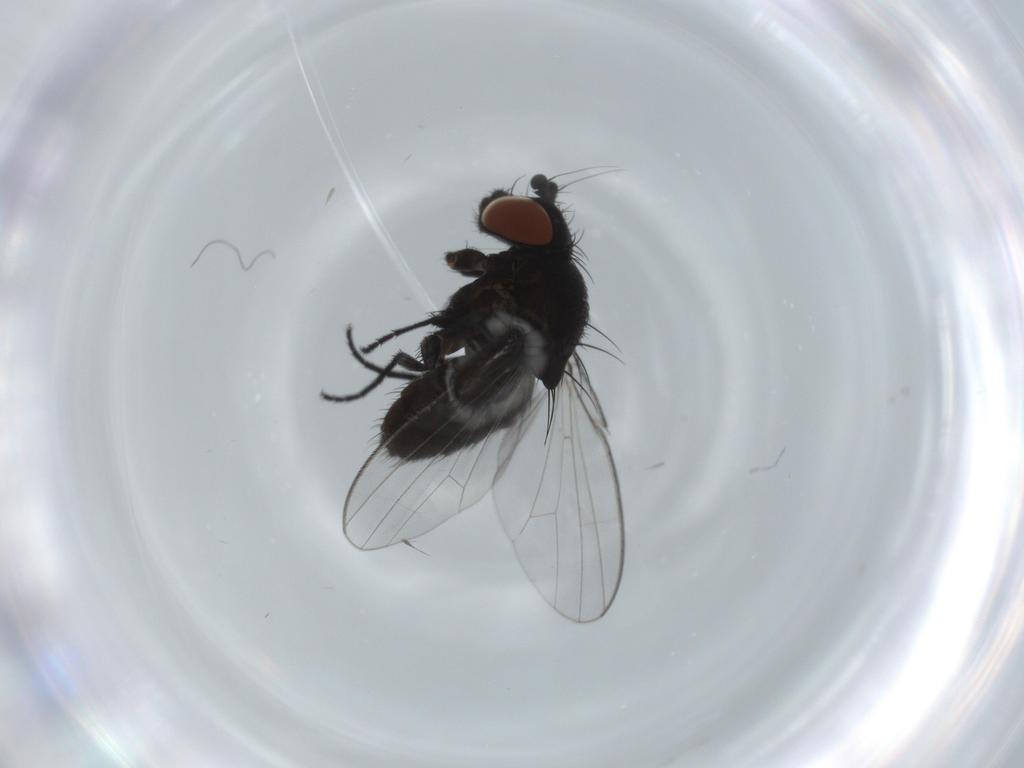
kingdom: Animalia
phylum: Arthropoda
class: Insecta
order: Diptera
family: Milichiidae
